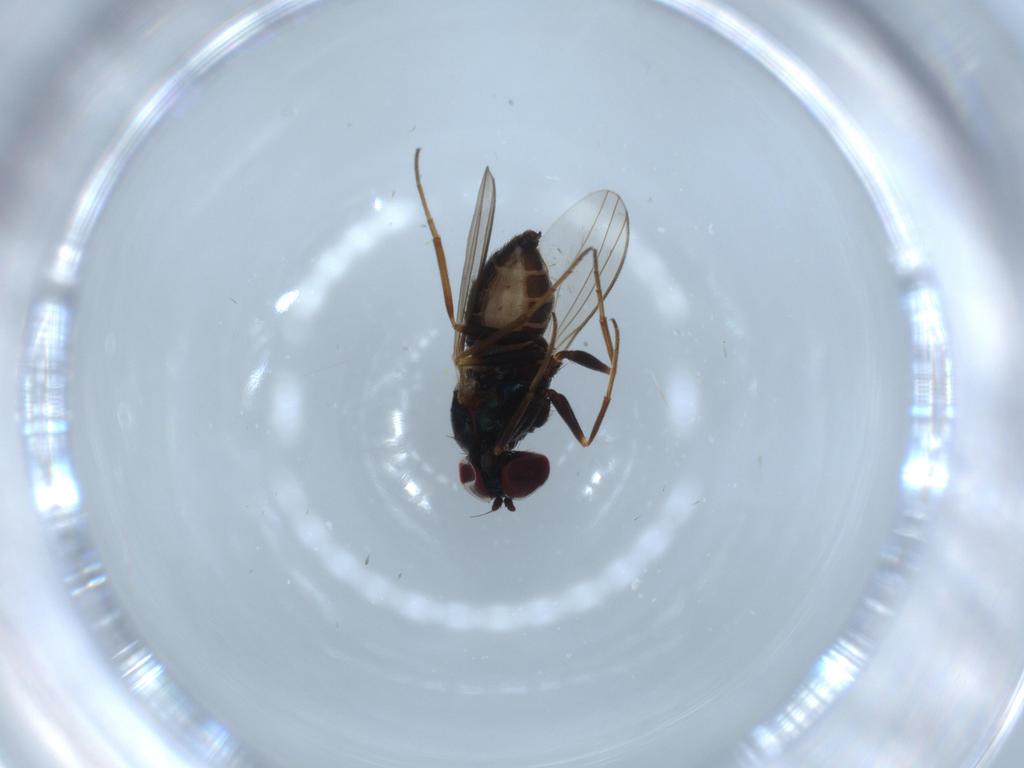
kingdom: Animalia
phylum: Arthropoda
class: Insecta
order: Diptera
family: Dolichopodidae
